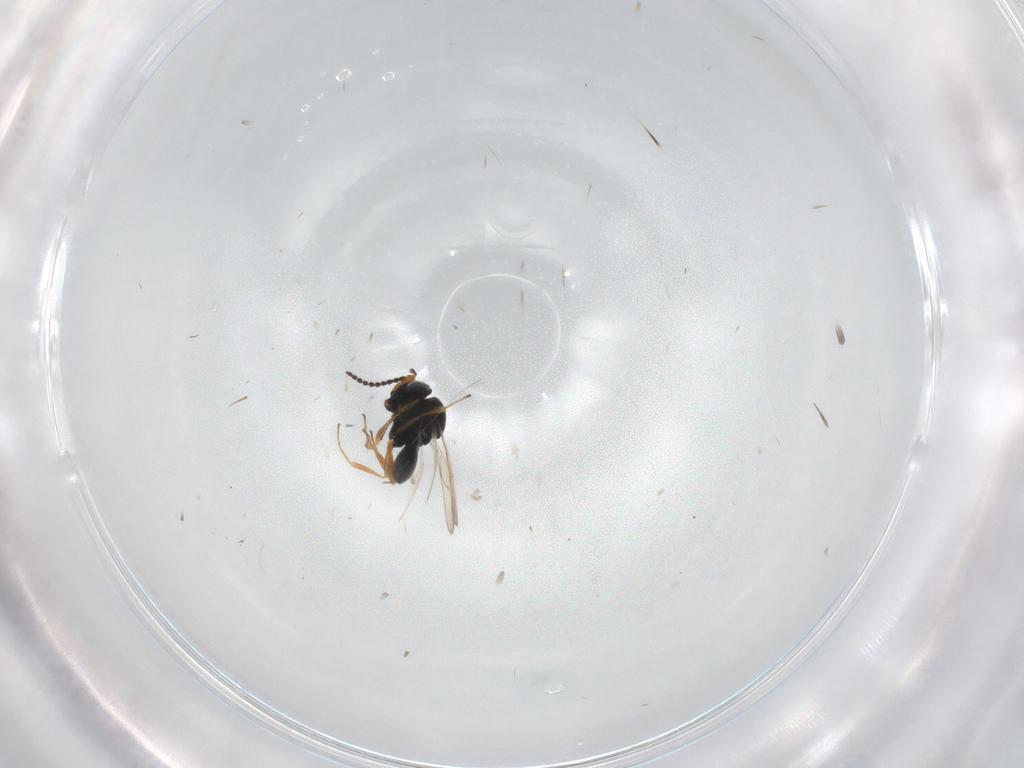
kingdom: Animalia
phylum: Arthropoda
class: Insecta
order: Hymenoptera
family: Scelionidae
